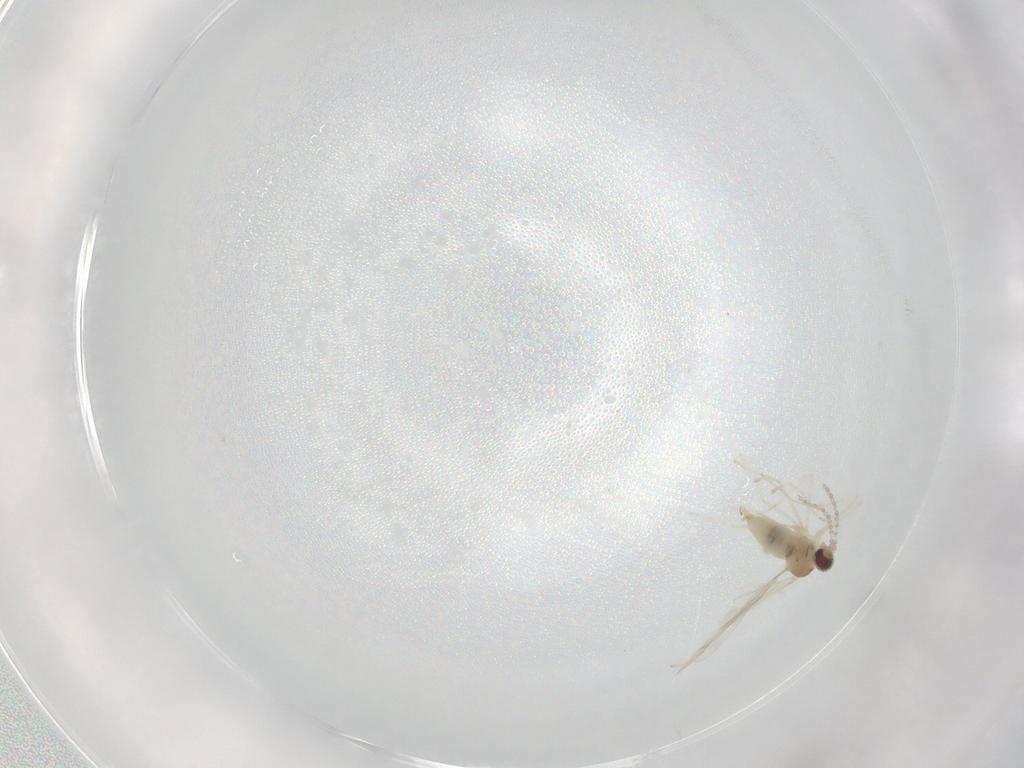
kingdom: Animalia
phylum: Arthropoda
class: Insecta
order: Diptera
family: Cecidomyiidae
